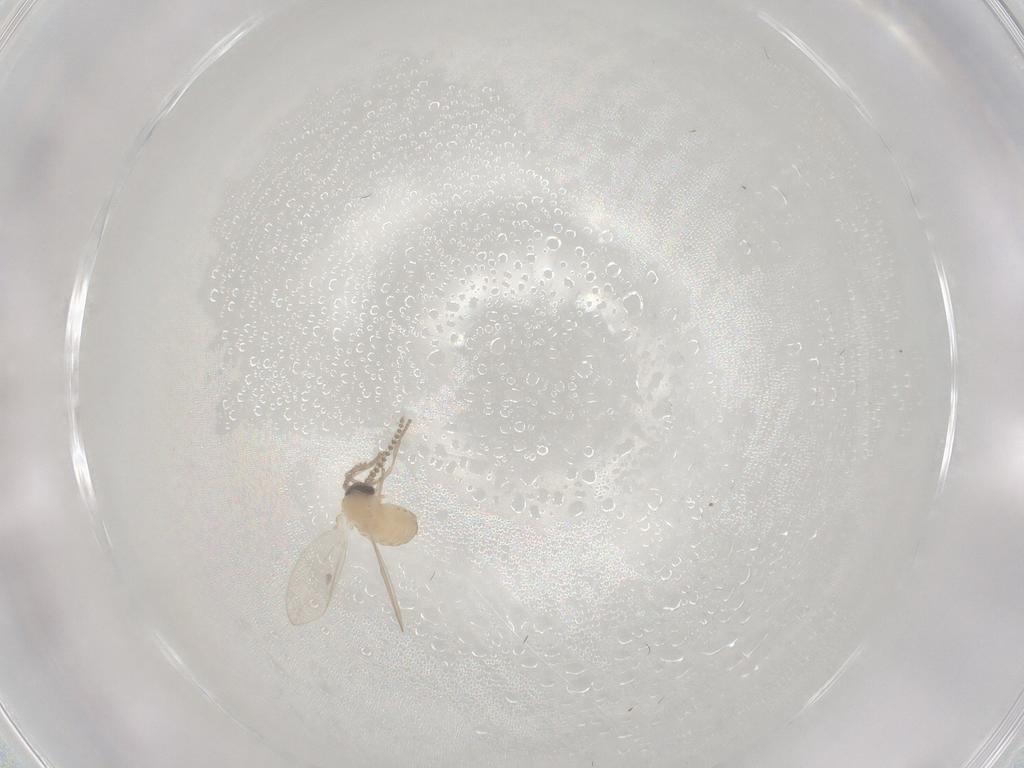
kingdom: Animalia
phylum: Arthropoda
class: Insecta
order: Diptera
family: Psychodidae
